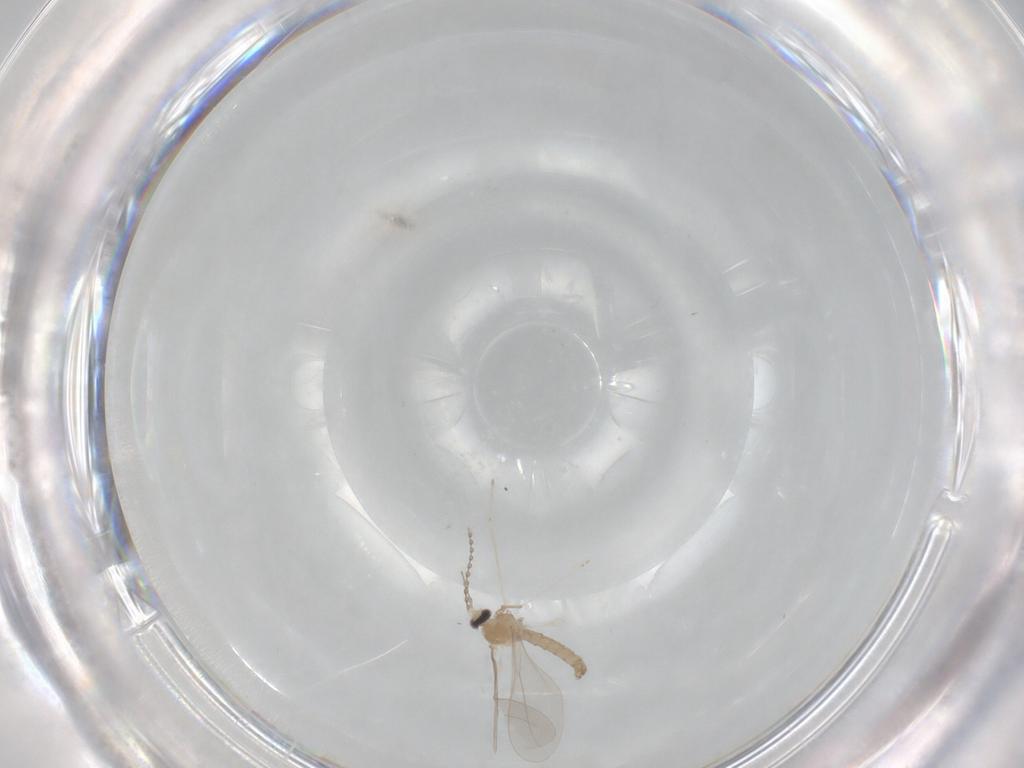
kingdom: Animalia
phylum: Arthropoda
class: Insecta
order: Diptera
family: Cecidomyiidae
